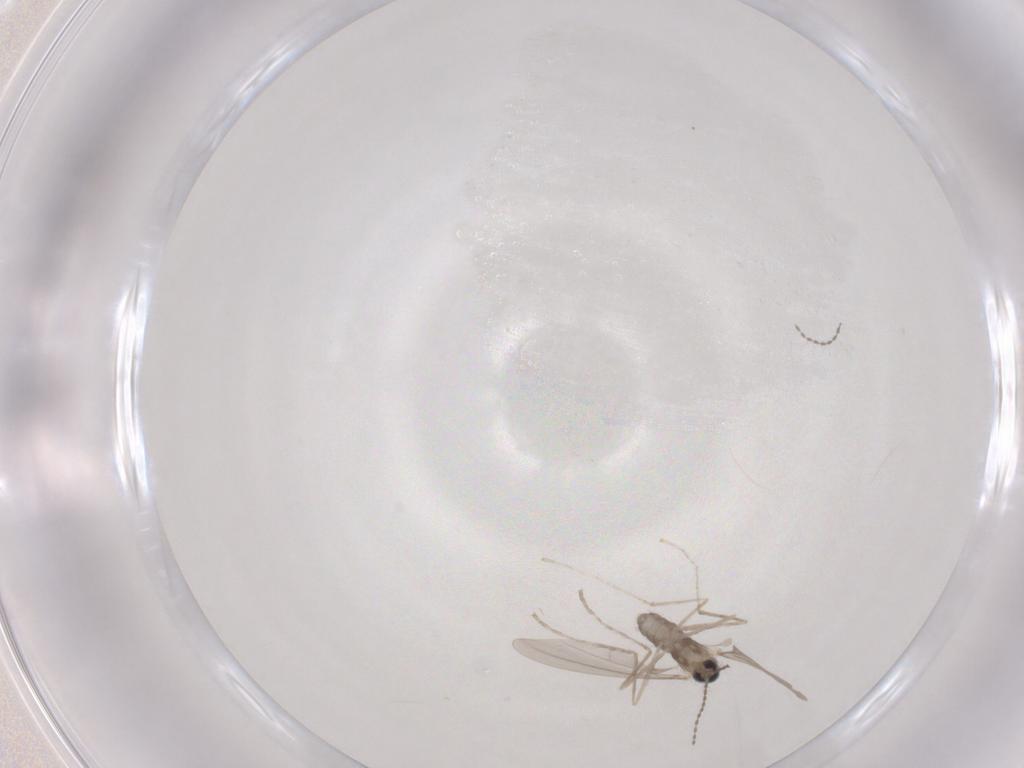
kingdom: Animalia
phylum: Arthropoda
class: Insecta
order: Diptera
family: Cecidomyiidae
